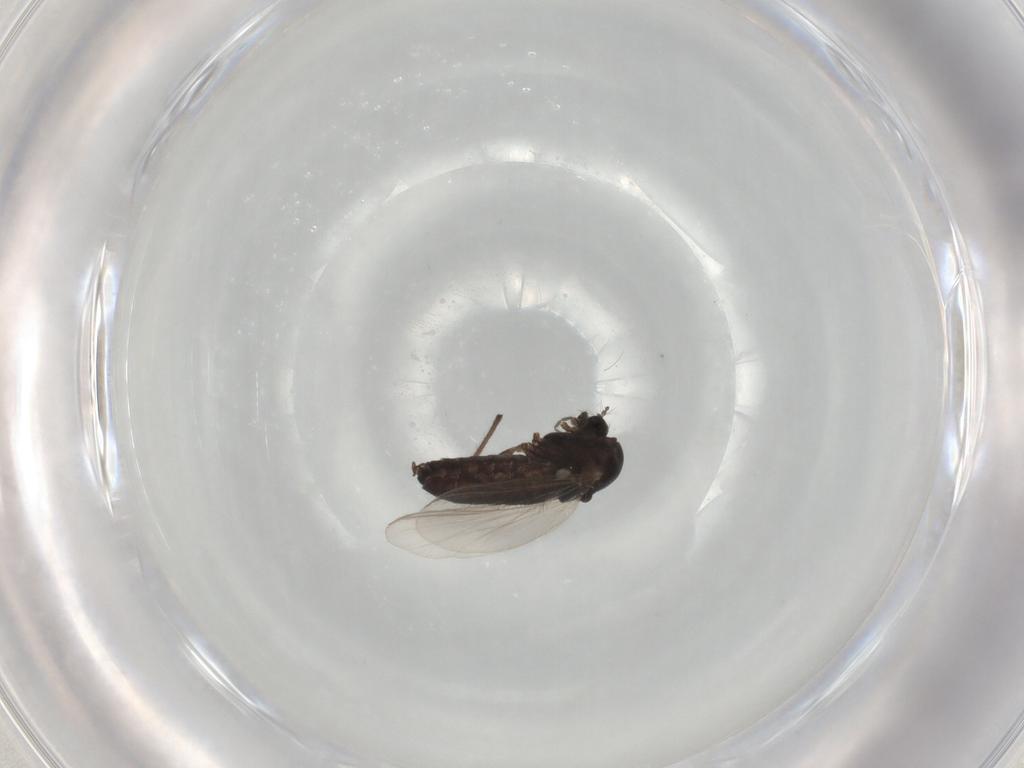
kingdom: Animalia
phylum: Arthropoda
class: Insecta
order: Diptera
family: Chironomidae
